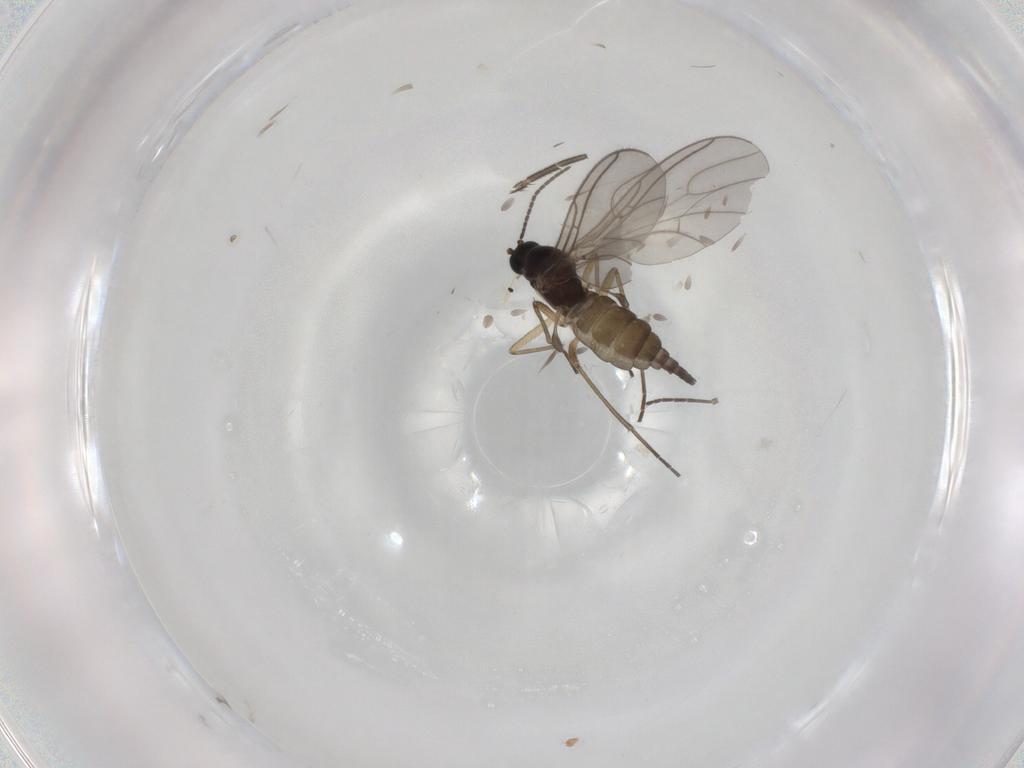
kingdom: Animalia
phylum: Arthropoda
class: Insecta
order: Diptera
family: Sciaridae
